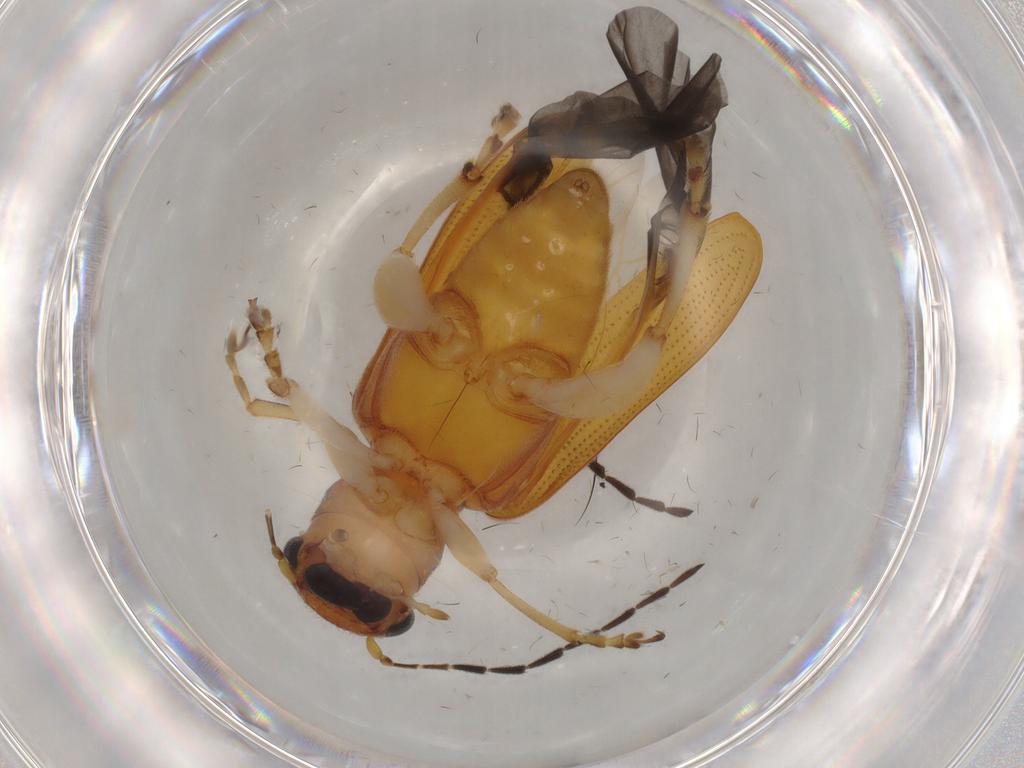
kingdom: Animalia
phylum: Arthropoda
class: Insecta
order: Coleoptera
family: Chrysomelidae
